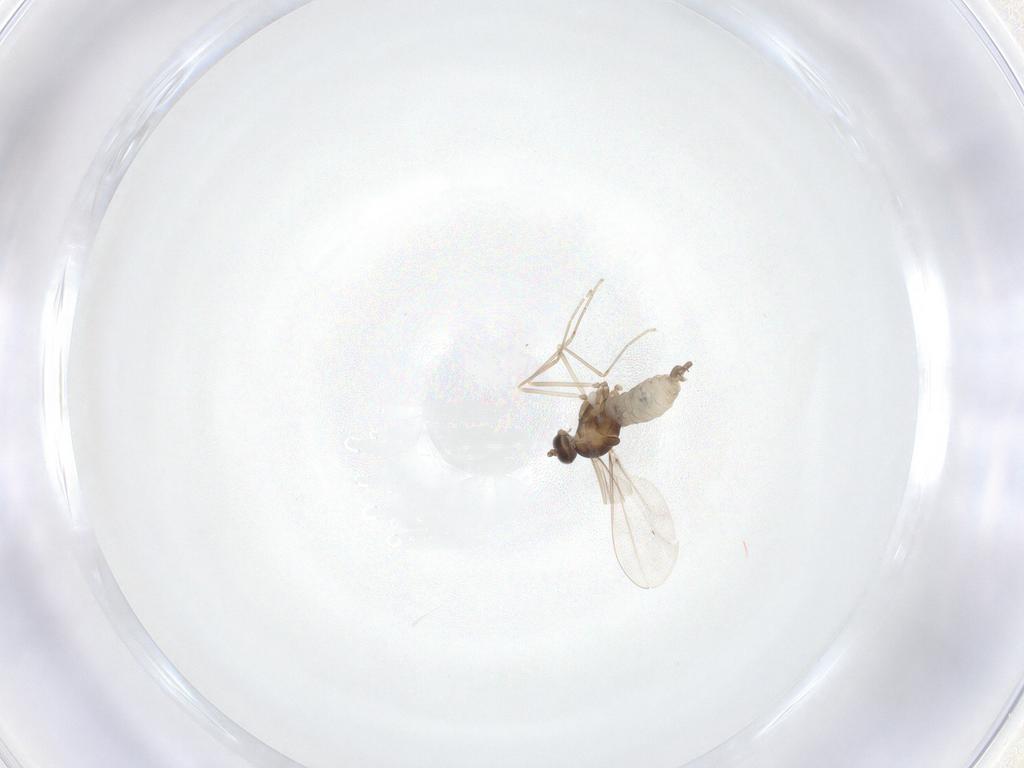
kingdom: Animalia
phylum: Arthropoda
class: Insecta
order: Diptera
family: Cecidomyiidae
